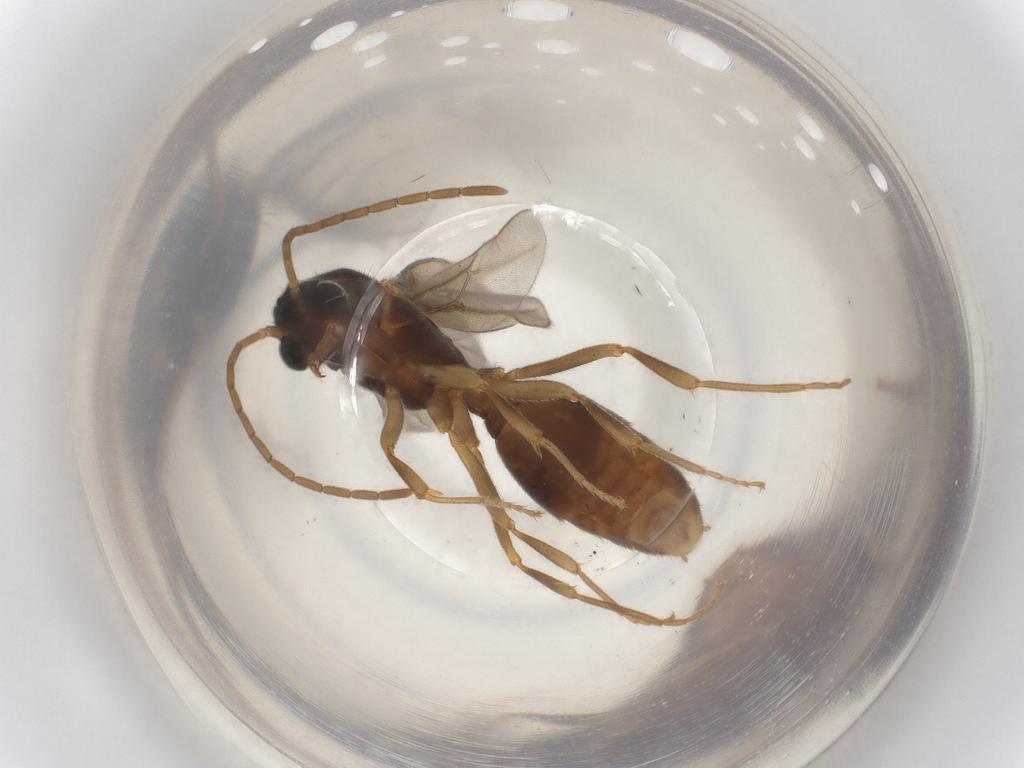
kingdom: Animalia
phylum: Arthropoda
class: Insecta
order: Hymenoptera
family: Formicidae
